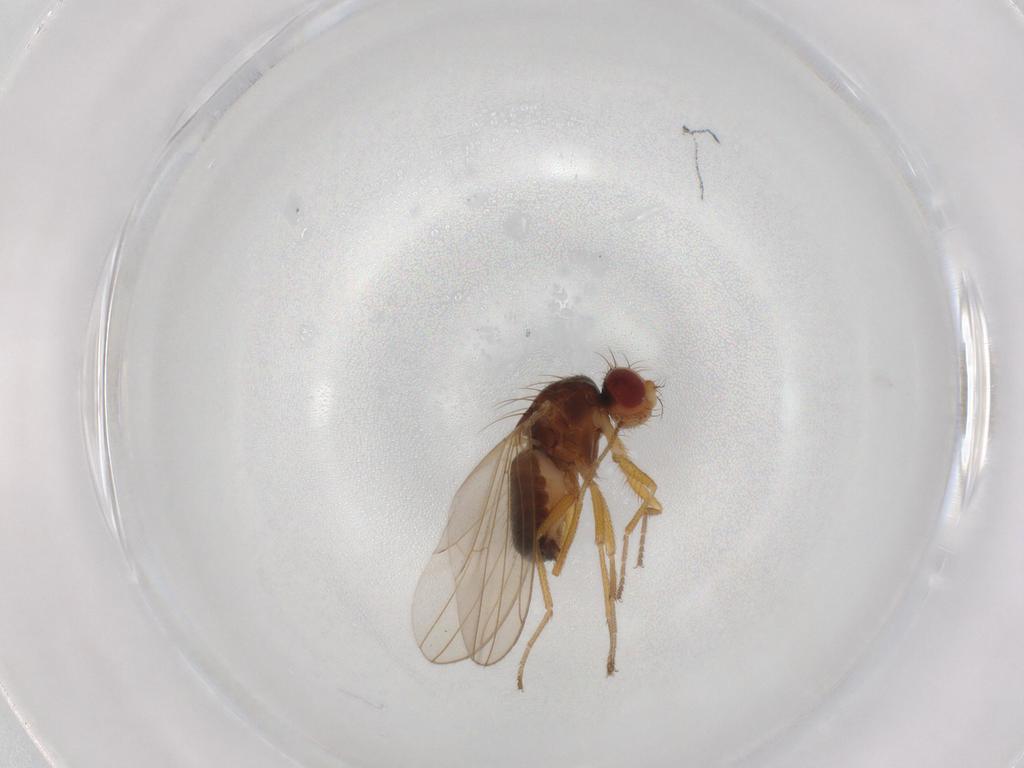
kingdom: Animalia
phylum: Arthropoda
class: Insecta
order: Diptera
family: Drosophilidae
